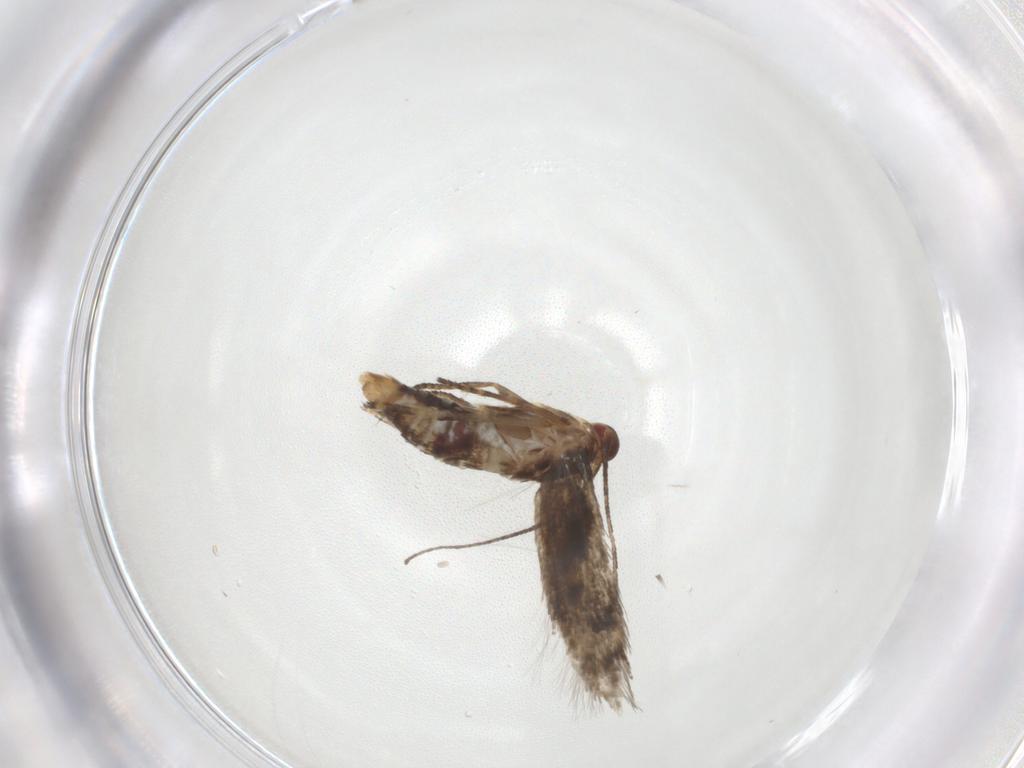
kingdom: Animalia
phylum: Arthropoda
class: Insecta
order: Lepidoptera
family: Momphidae
